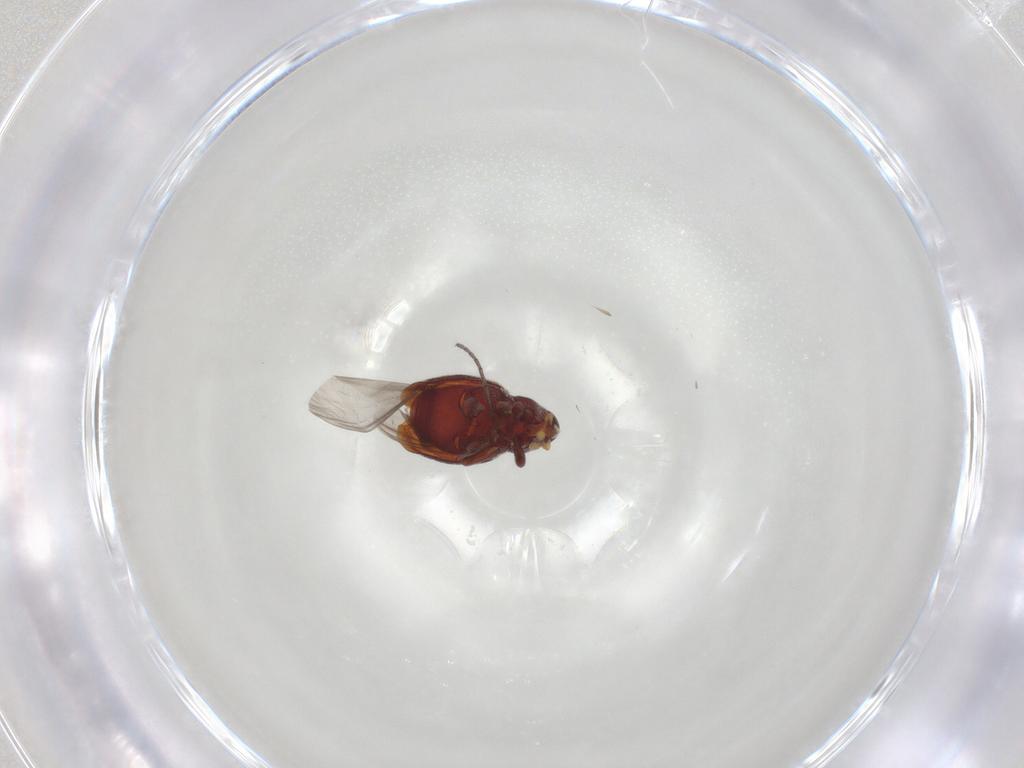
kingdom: Animalia
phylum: Arthropoda
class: Insecta
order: Coleoptera
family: Curculionidae
